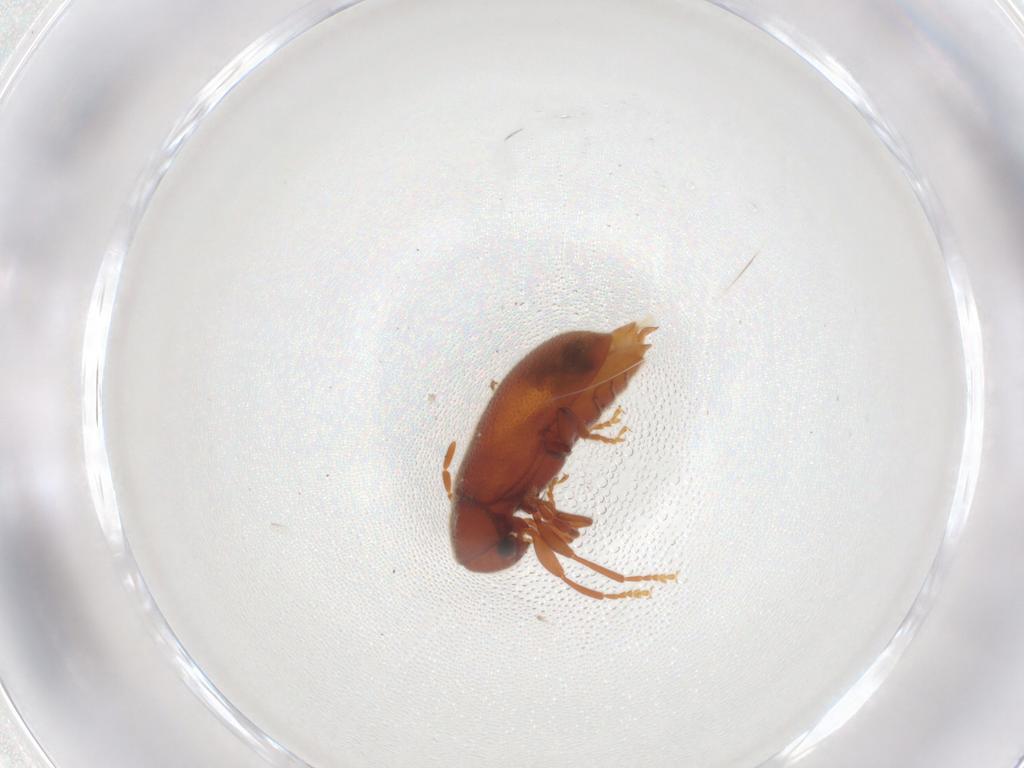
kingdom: Animalia
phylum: Arthropoda
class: Insecta
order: Coleoptera
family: Ptinidae
